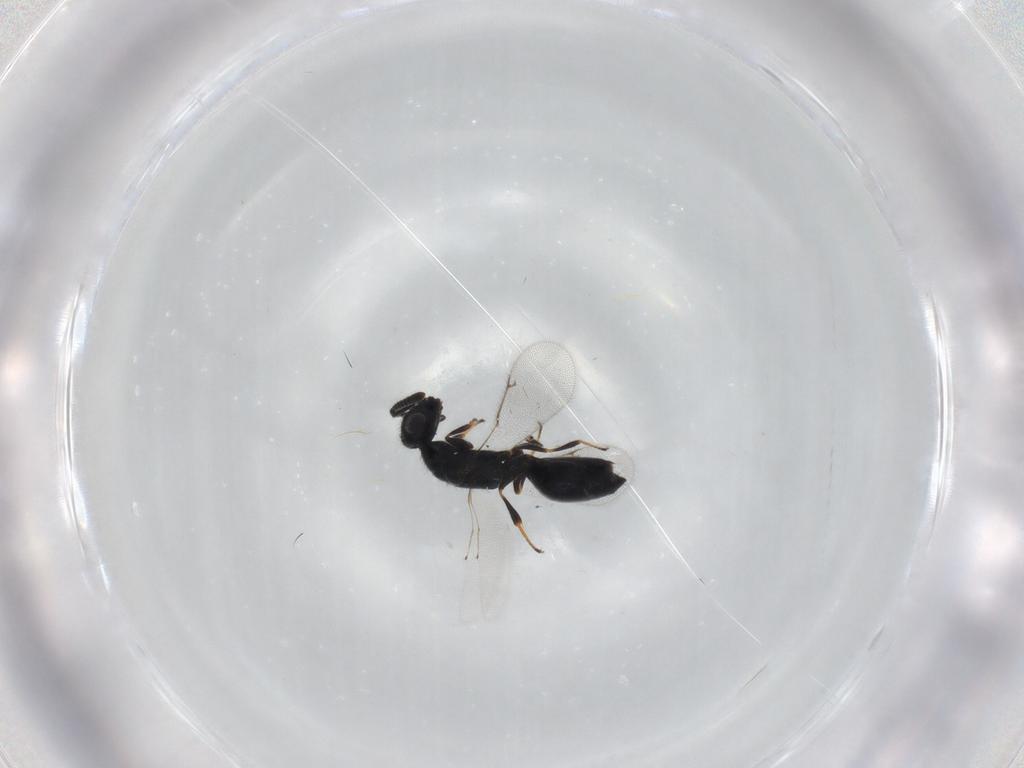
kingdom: Animalia
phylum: Arthropoda
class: Insecta
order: Hymenoptera
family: Spalangiidae
